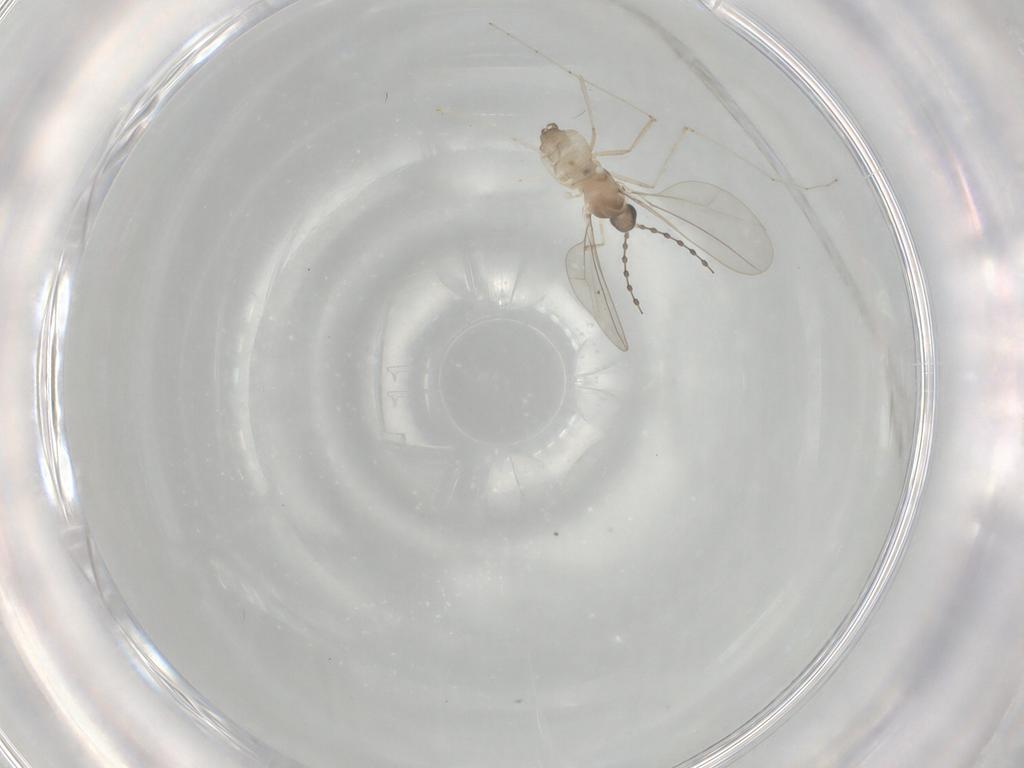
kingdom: Animalia
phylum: Arthropoda
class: Insecta
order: Diptera
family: Cecidomyiidae
